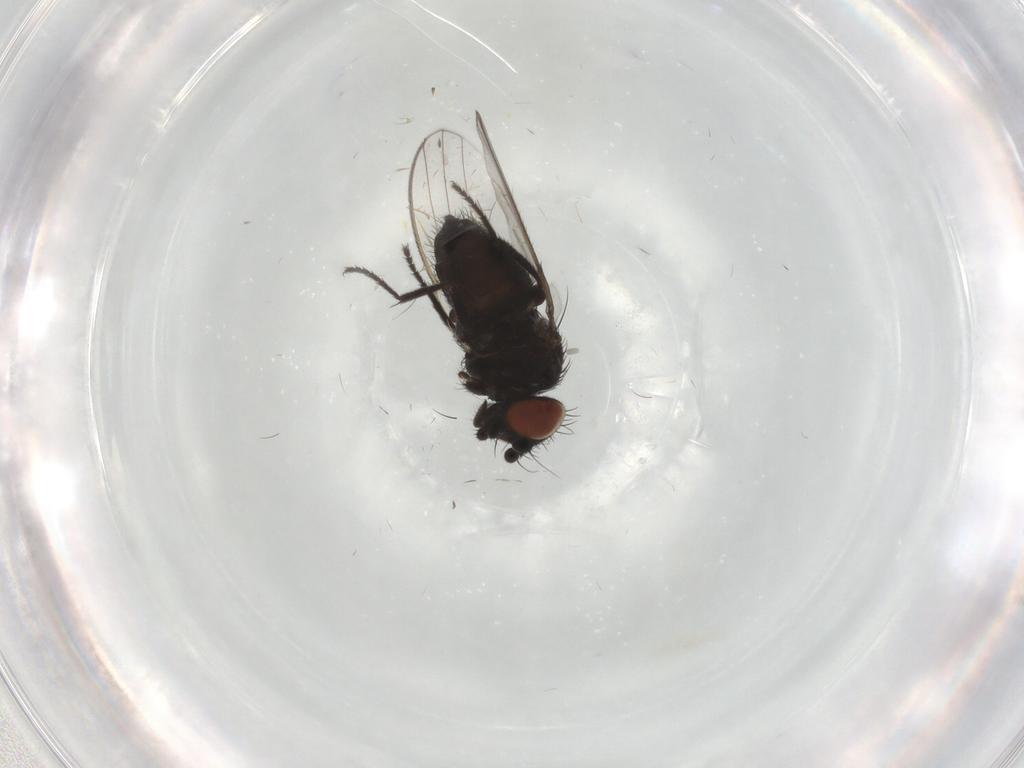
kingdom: Animalia
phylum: Arthropoda
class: Insecta
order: Diptera
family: Milichiidae
